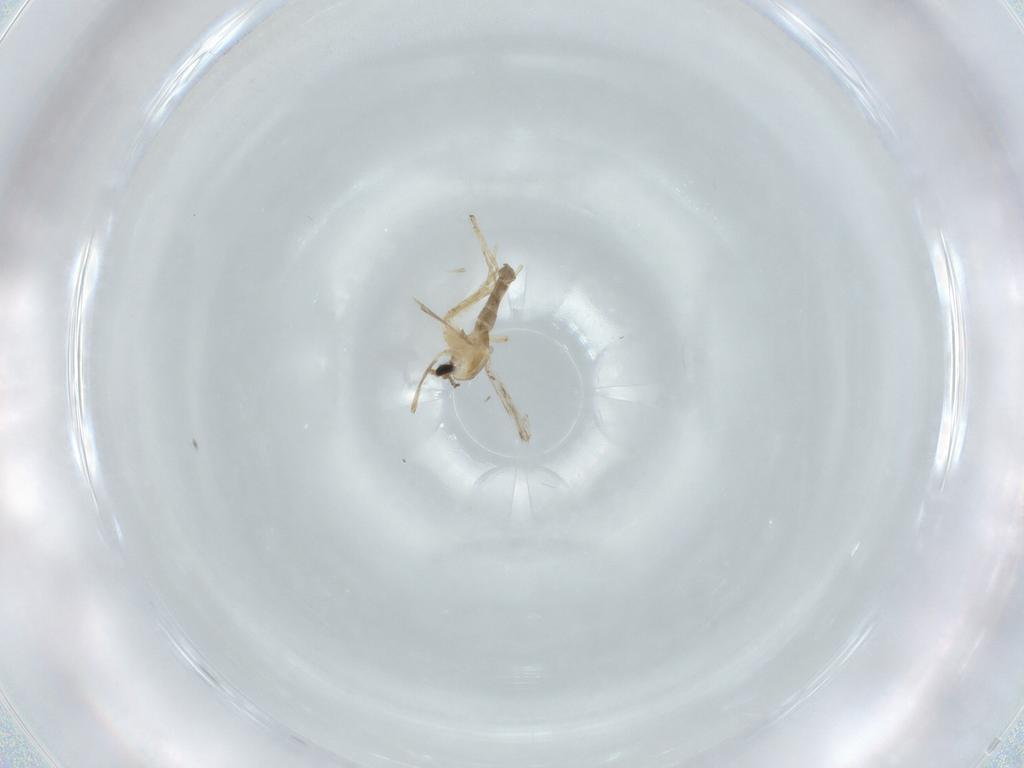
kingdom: Animalia
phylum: Arthropoda
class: Insecta
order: Diptera
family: Chironomidae
